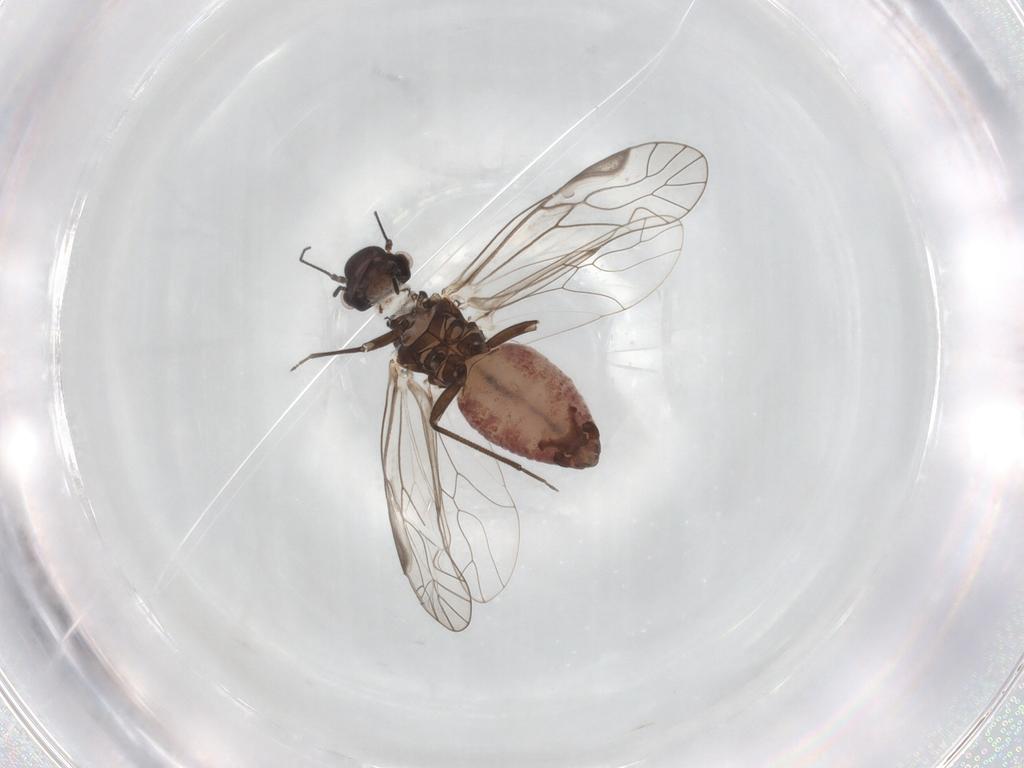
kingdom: Animalia
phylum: Arthropoda
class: Insecta
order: Psocodea
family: Caeciliusidae
